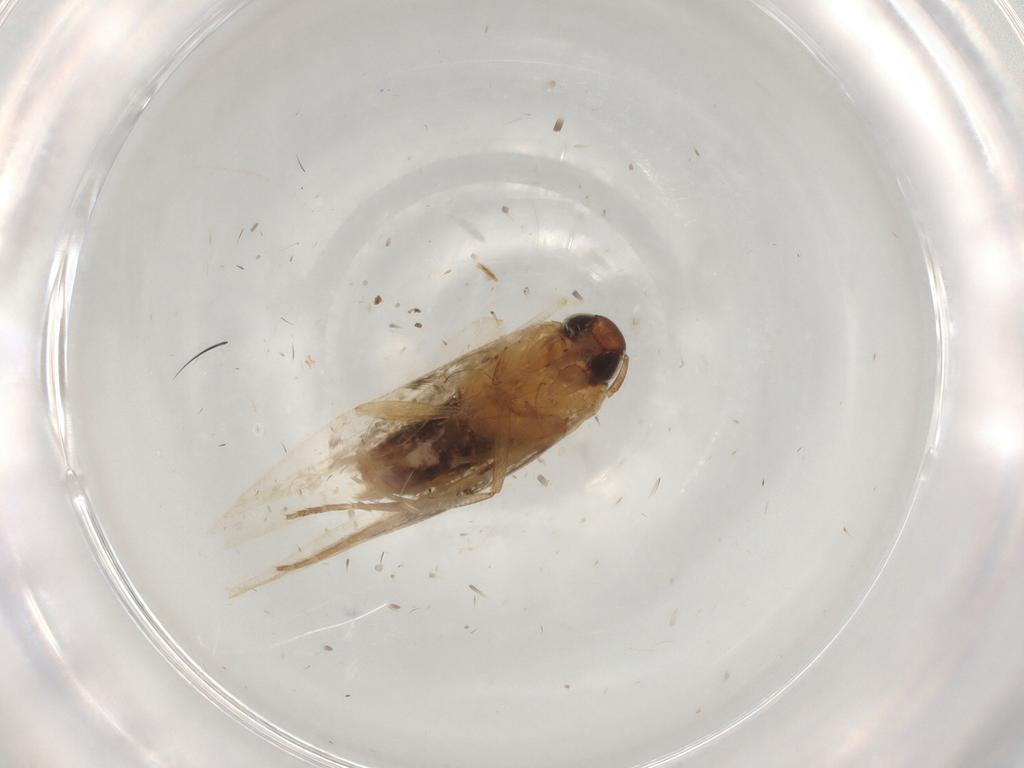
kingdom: Animalia
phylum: Arthropoda
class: Insecta
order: Lepidoptera
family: Cosmopterigidae
